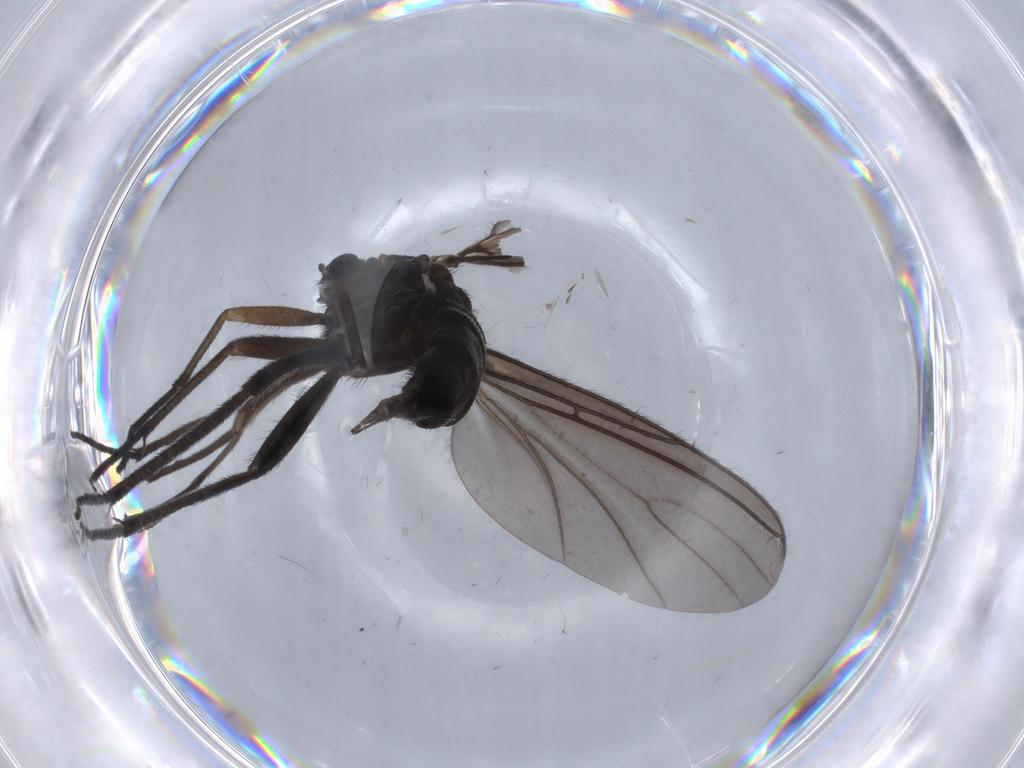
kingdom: Animalia
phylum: Arthropoda
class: Insecta
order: Diptera
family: Sciaridae
